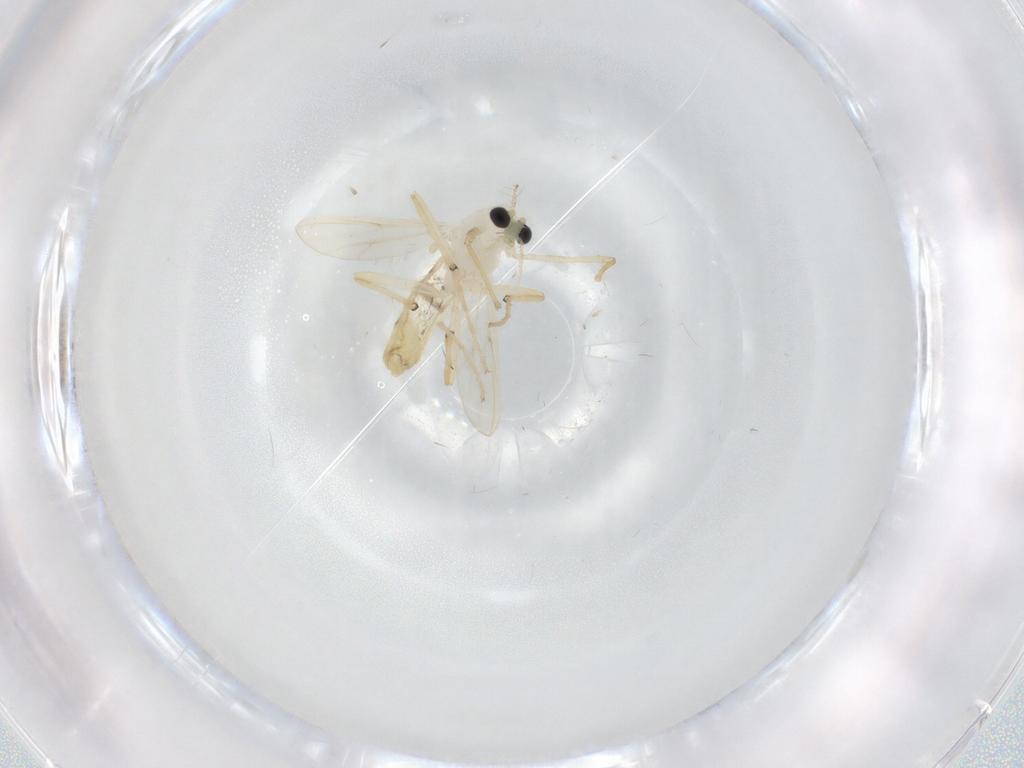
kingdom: Animalia
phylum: Arthropoda
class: Insecta
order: Diptera
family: Chironomidae
